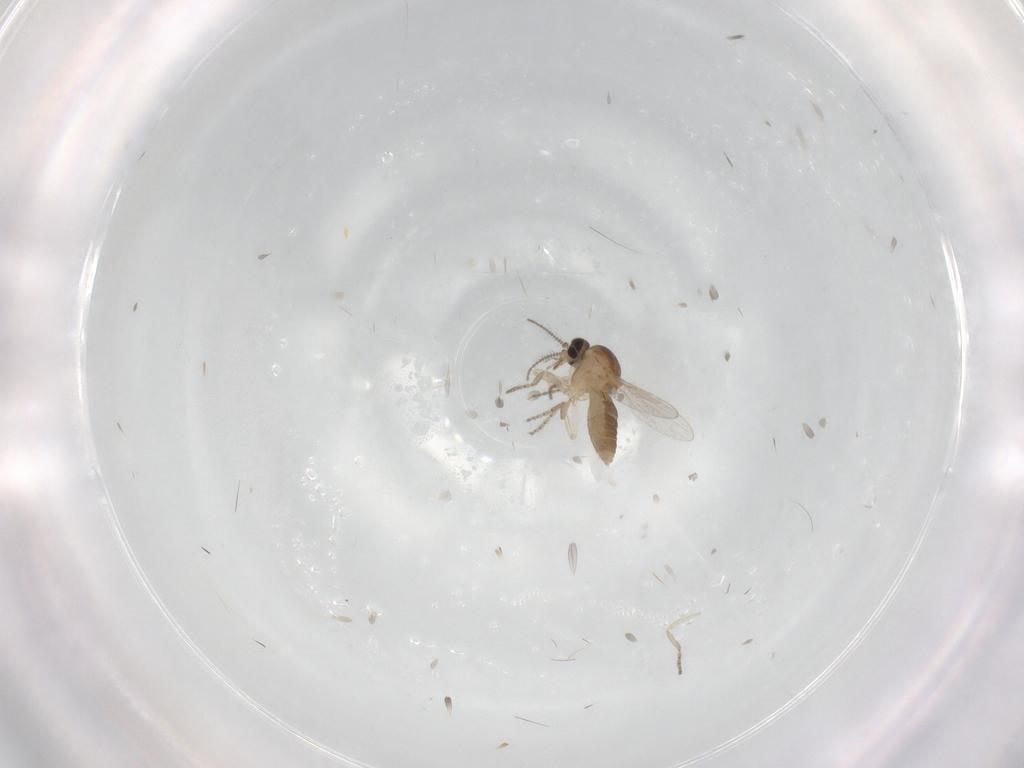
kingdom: Animalia
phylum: Arthropoda
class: Insecta
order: Diptera
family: Ceratopogonidae
